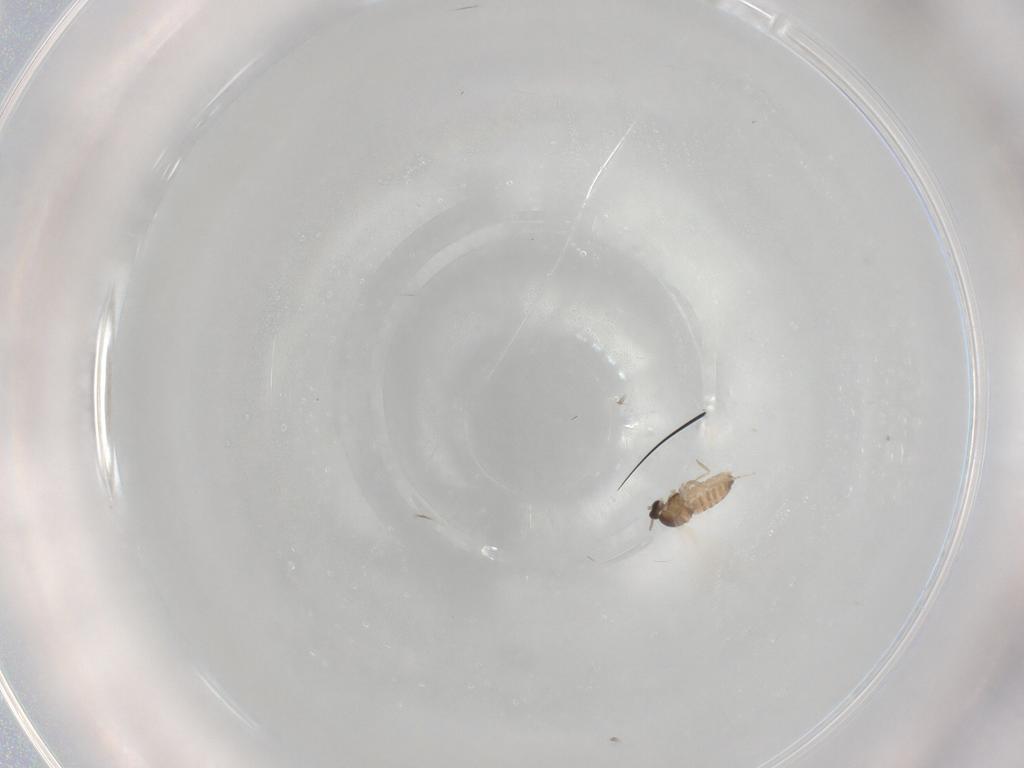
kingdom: Animalia
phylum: Arthropoda
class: Insecta
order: Diptera
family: Cecidomyiidae
